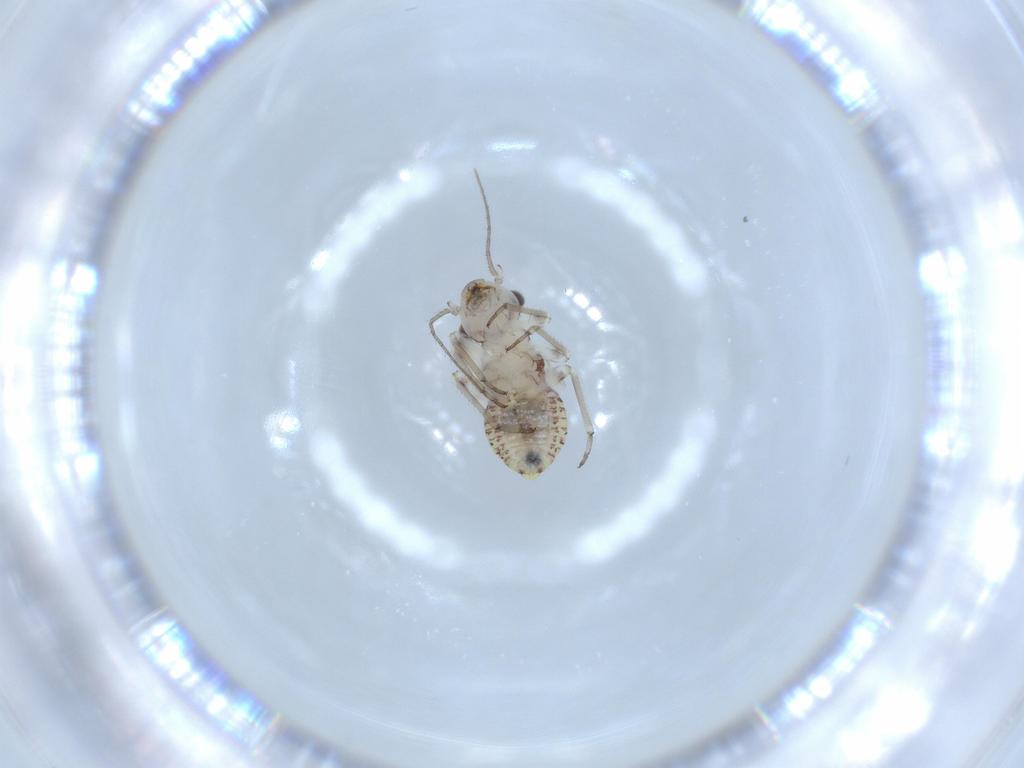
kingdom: Animalia
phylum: Arthropoda
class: Insecta
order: Psocodea
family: Psocidae
